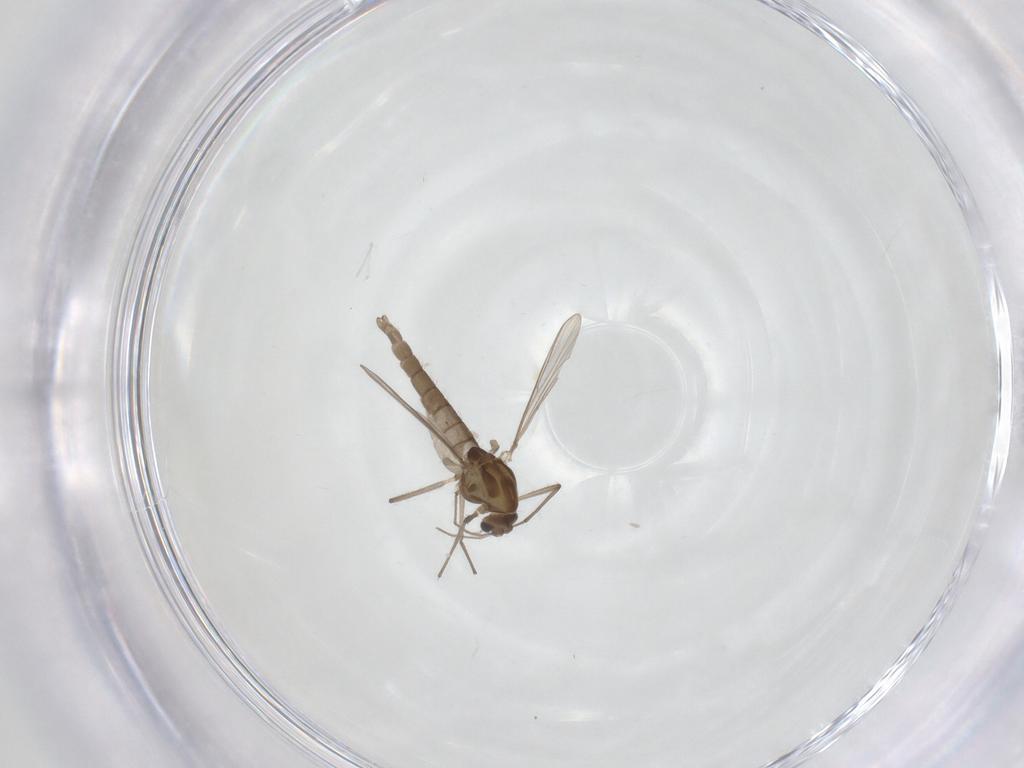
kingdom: Animalia
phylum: Arthropoda
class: Insecta
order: Diptera
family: Chironomidae
